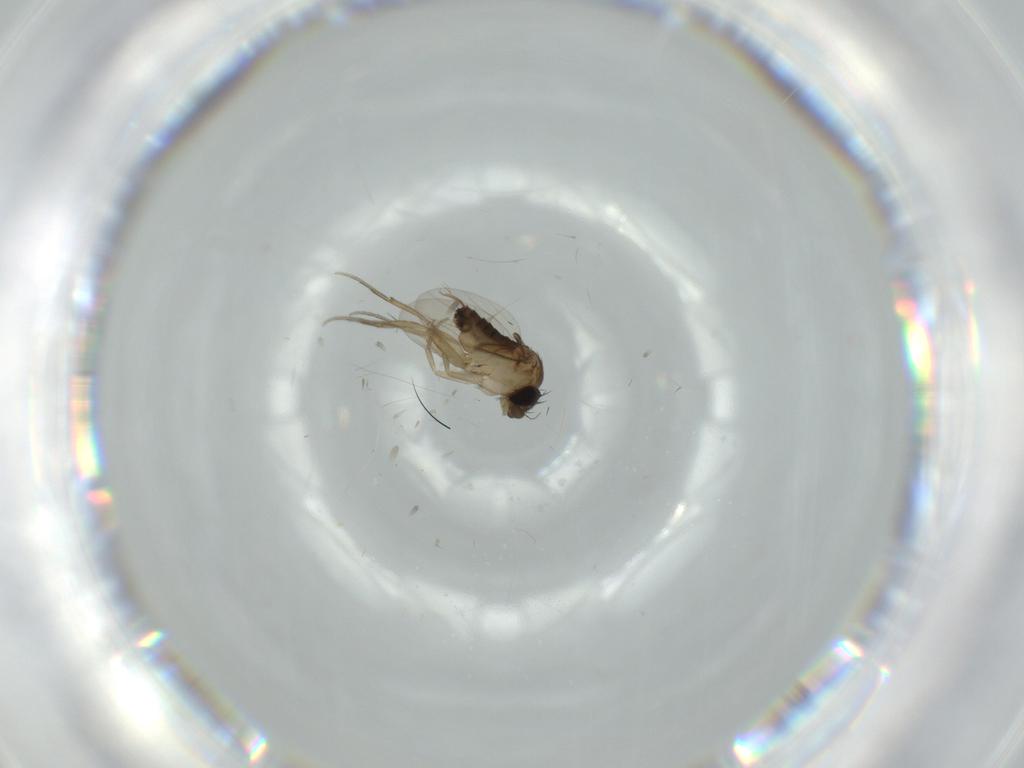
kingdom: Animalia
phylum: Arthropoda
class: Insecta
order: Diptera
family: Phoridae
